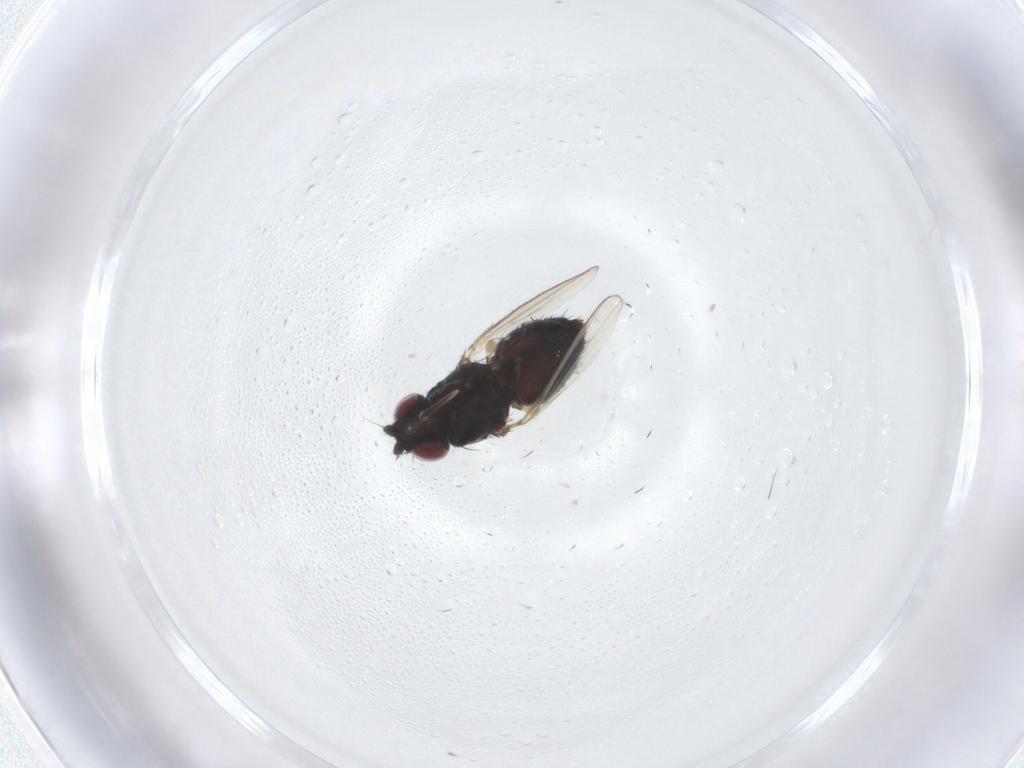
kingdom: Animalia
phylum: Arthropoda
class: Insecta
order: Diptera
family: Milichiidae
